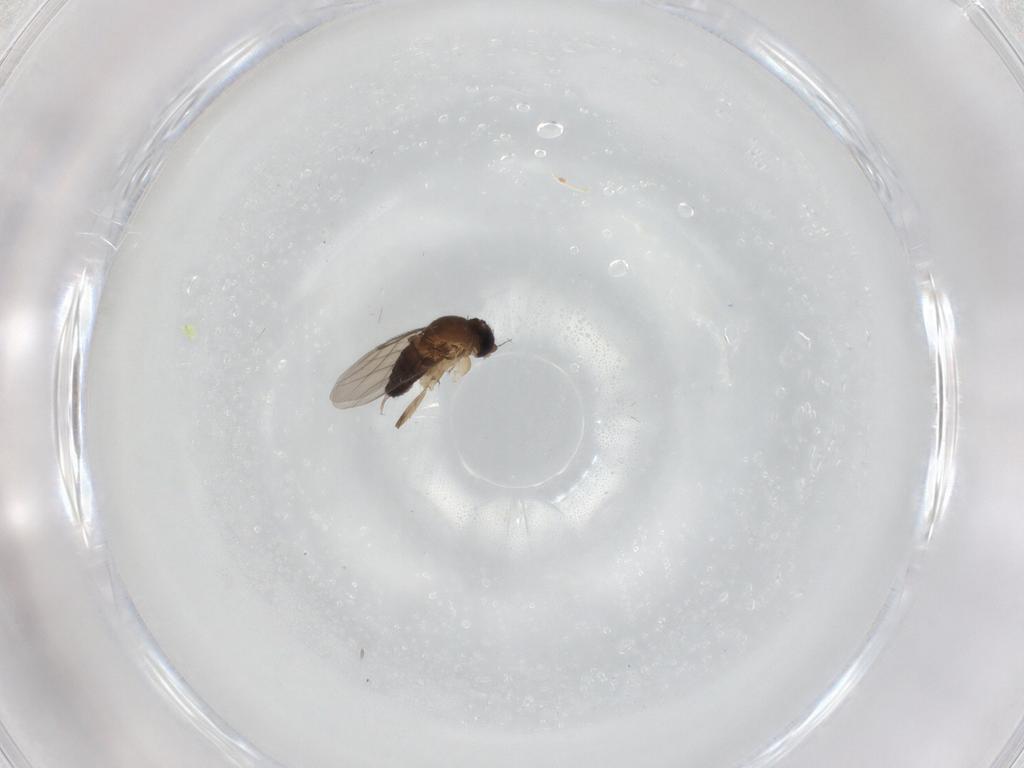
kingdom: Animalia
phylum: Arthropoda
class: Insecta
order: Diptera
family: Phoridae
